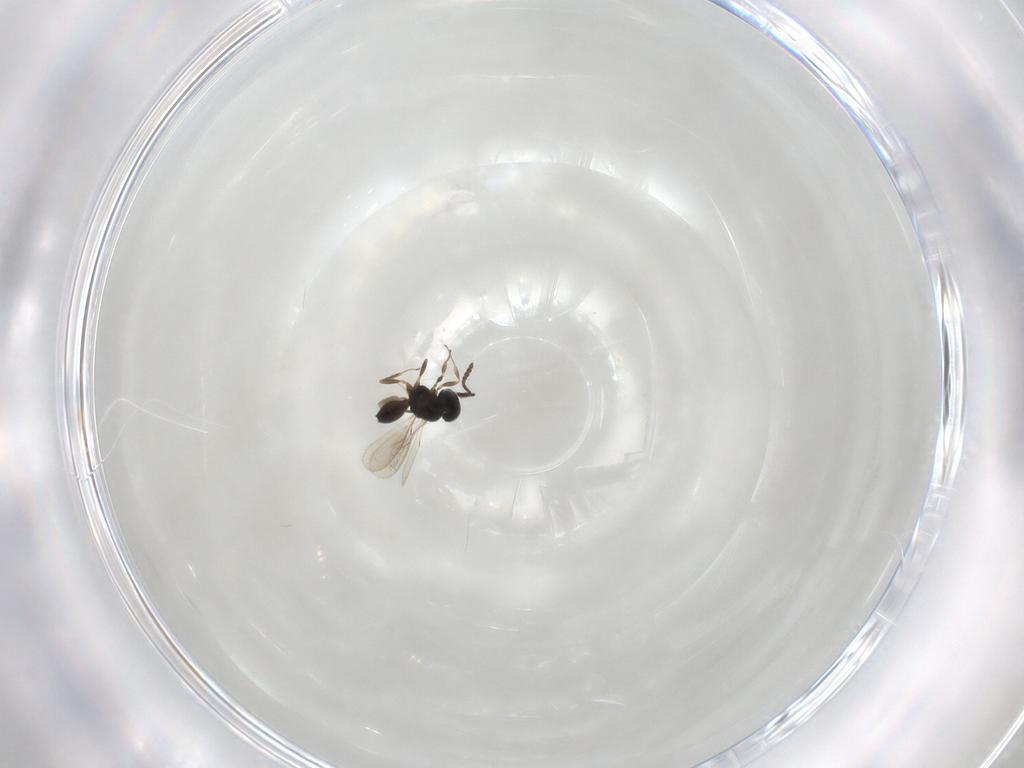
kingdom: Animalia
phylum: Arthropoda
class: Insecta
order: Hymenoptera
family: Scelionidae
